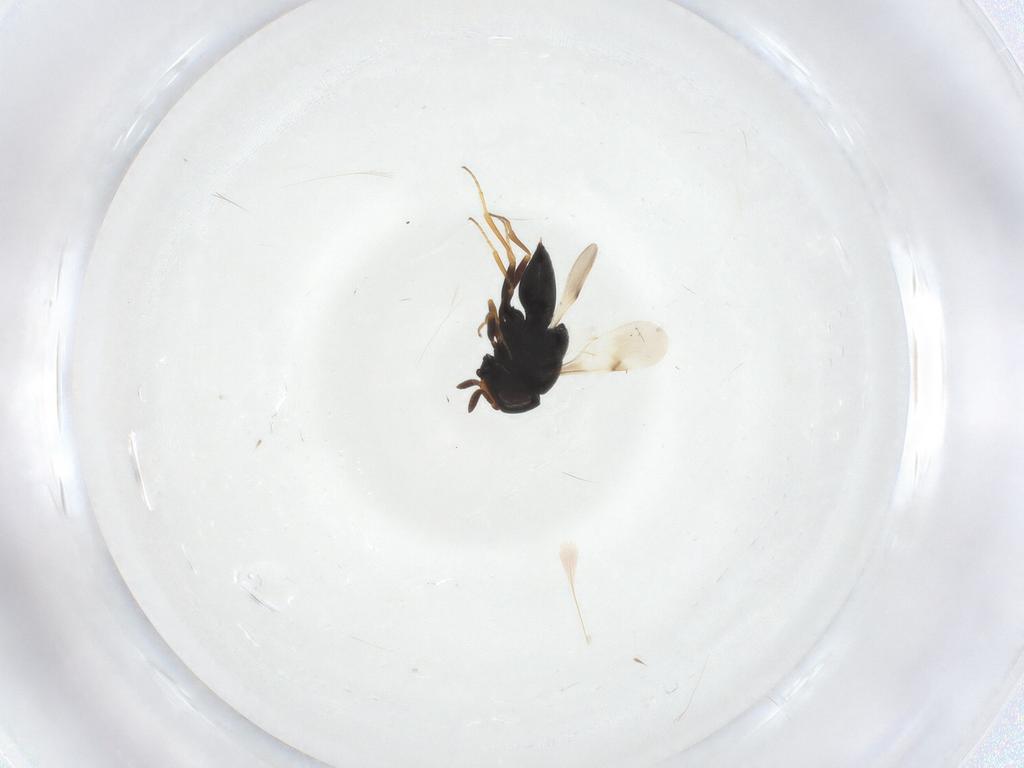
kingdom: Animalia
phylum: Arthropoda
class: Insecta
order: Hymenoptera
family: Scelionidae
